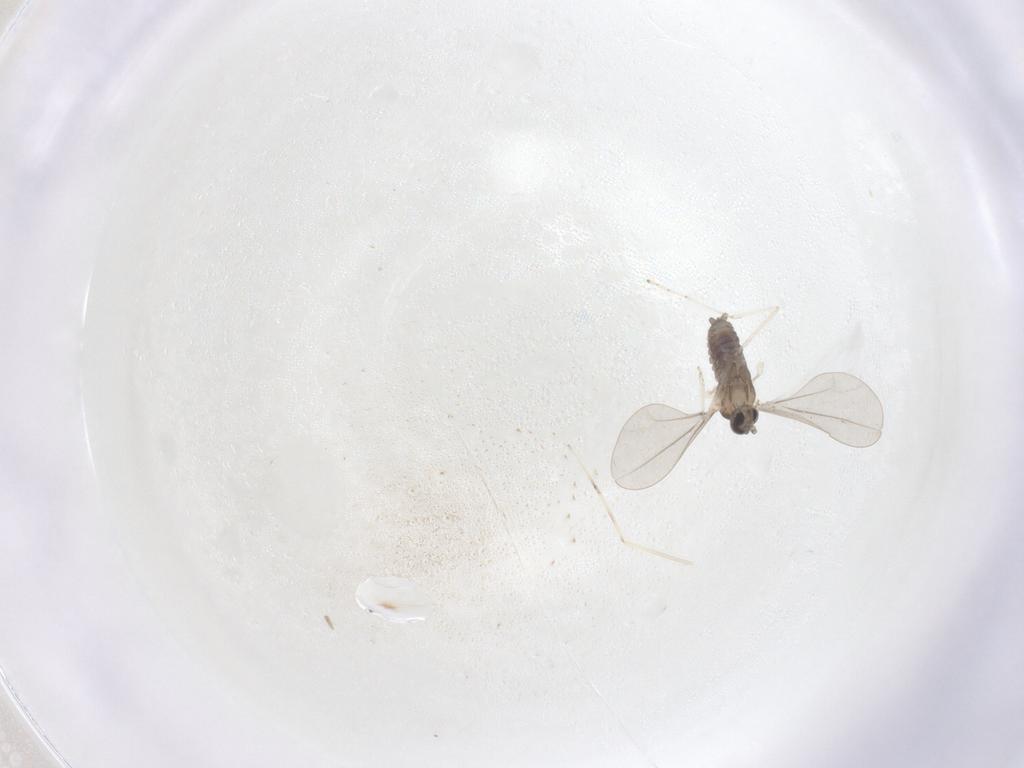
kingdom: Animalia
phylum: Arthropoda
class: Insecta
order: Diptera
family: Cecidomyiidae
